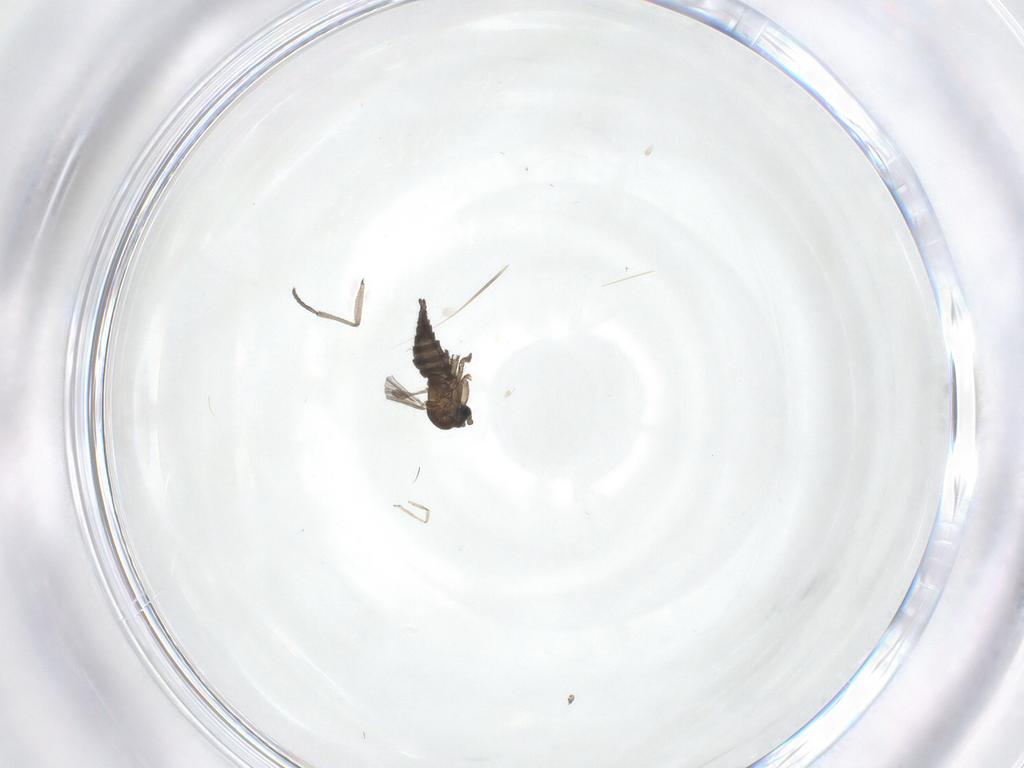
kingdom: Animalia
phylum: Arthropoda
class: Insecta
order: Diptera
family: Sciaridae
